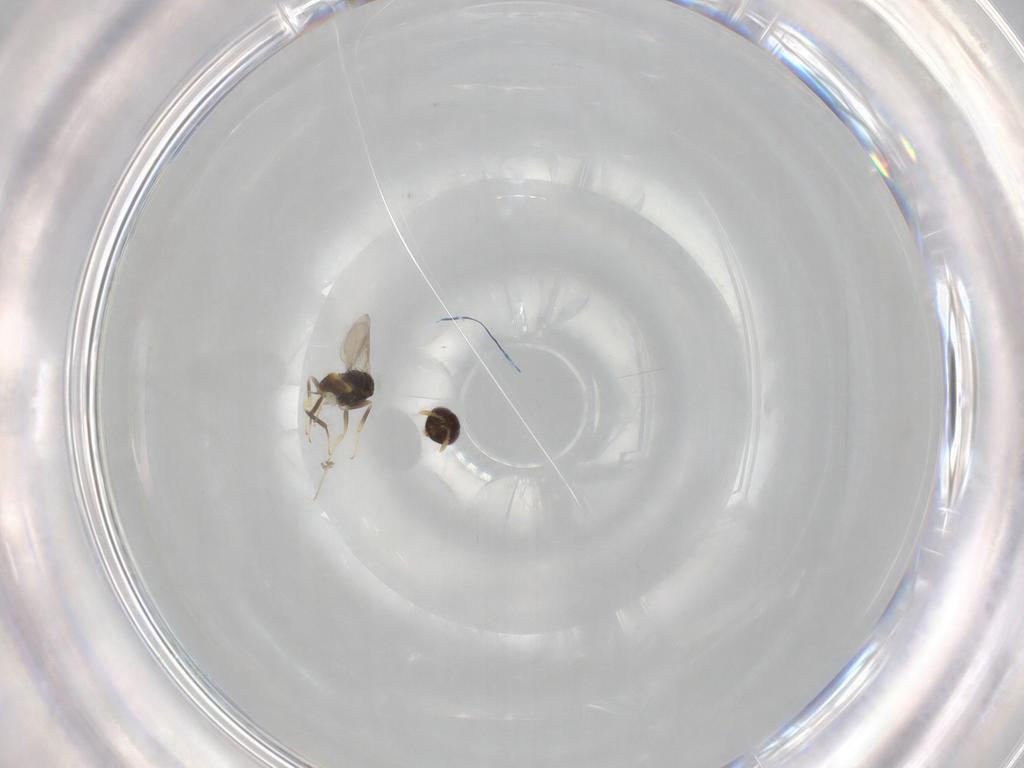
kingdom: Animalia
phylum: Arthropoda
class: Insecta
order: Diptera
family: Cecidomyiidae
